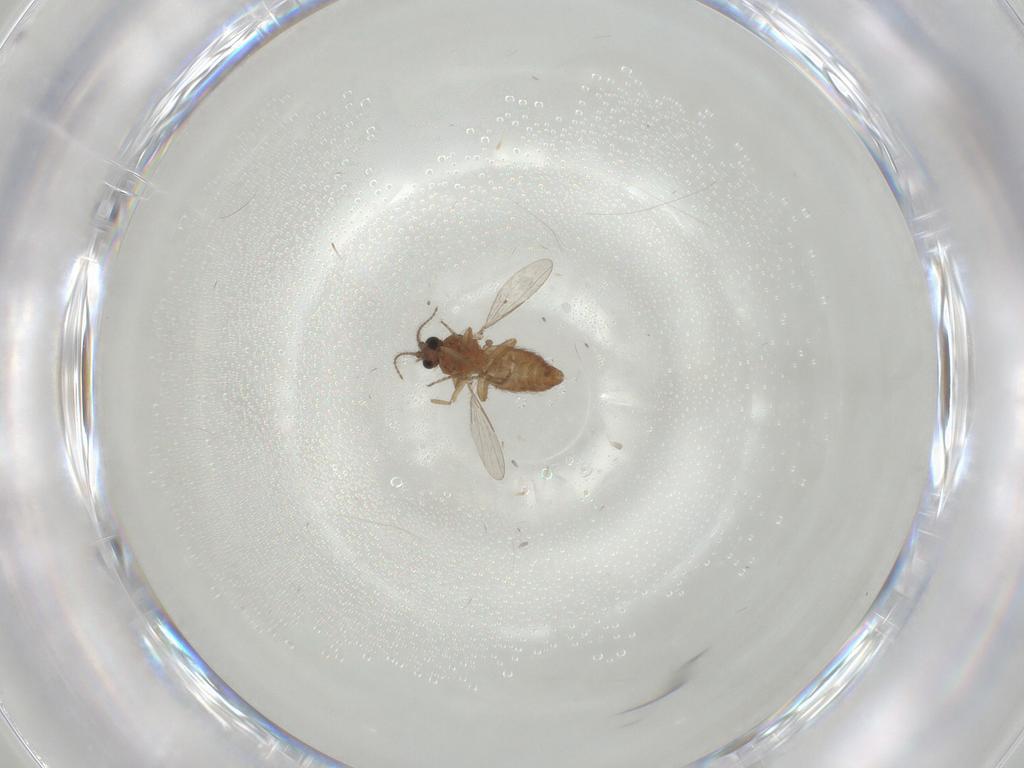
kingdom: Animalia
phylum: Arthropoda
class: Insecta
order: Diptera
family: Ceratopogonidae
